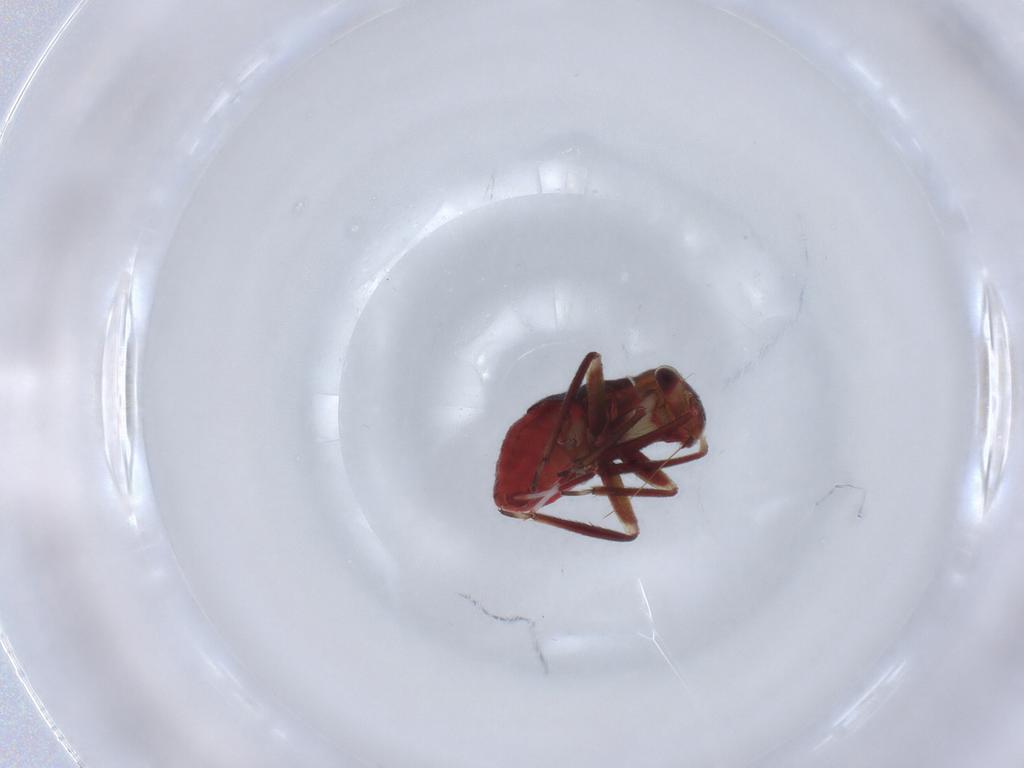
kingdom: Animalia
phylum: Arthropoda
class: Insecta
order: Hemiptera
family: Miridae
